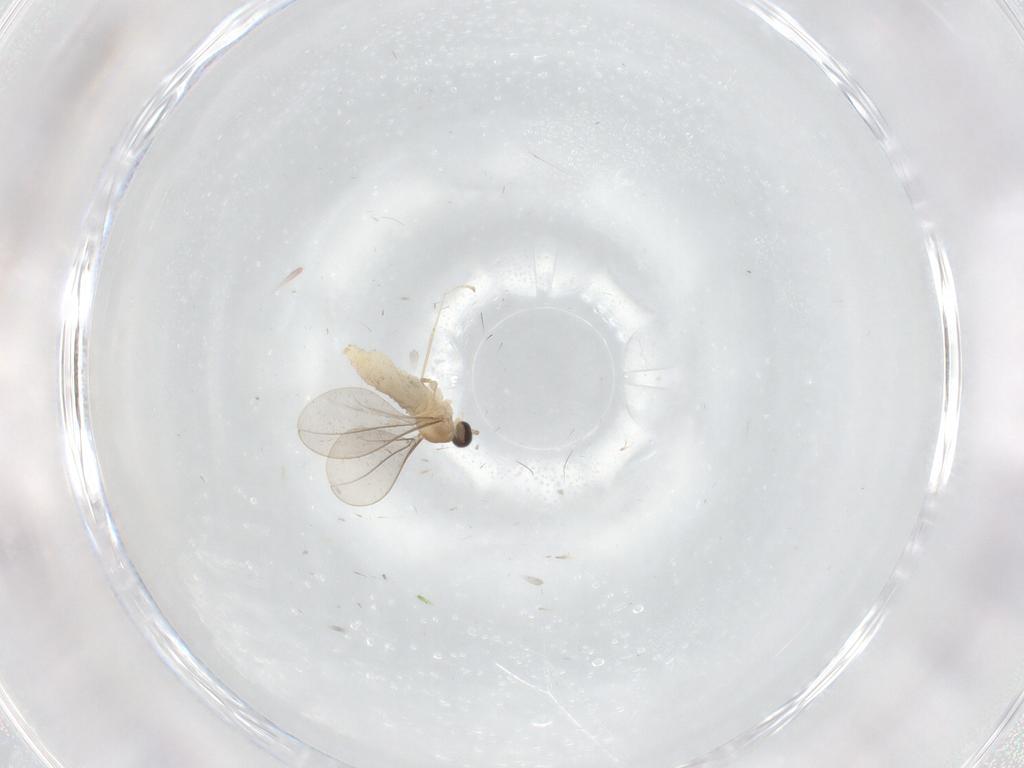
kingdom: Animalia
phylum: Arthropoda
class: Insecta
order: Diptera
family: Cecidomyiidae
